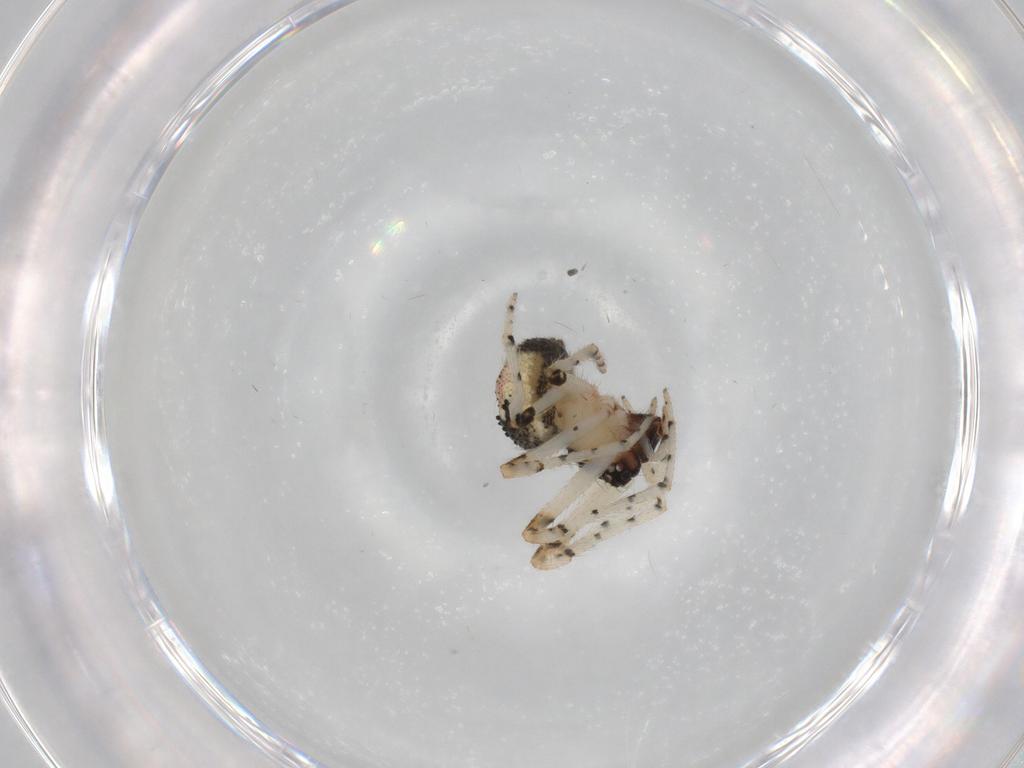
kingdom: Animalia
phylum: Arthropoda
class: Arachnida
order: Araneae
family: Theridiidae
